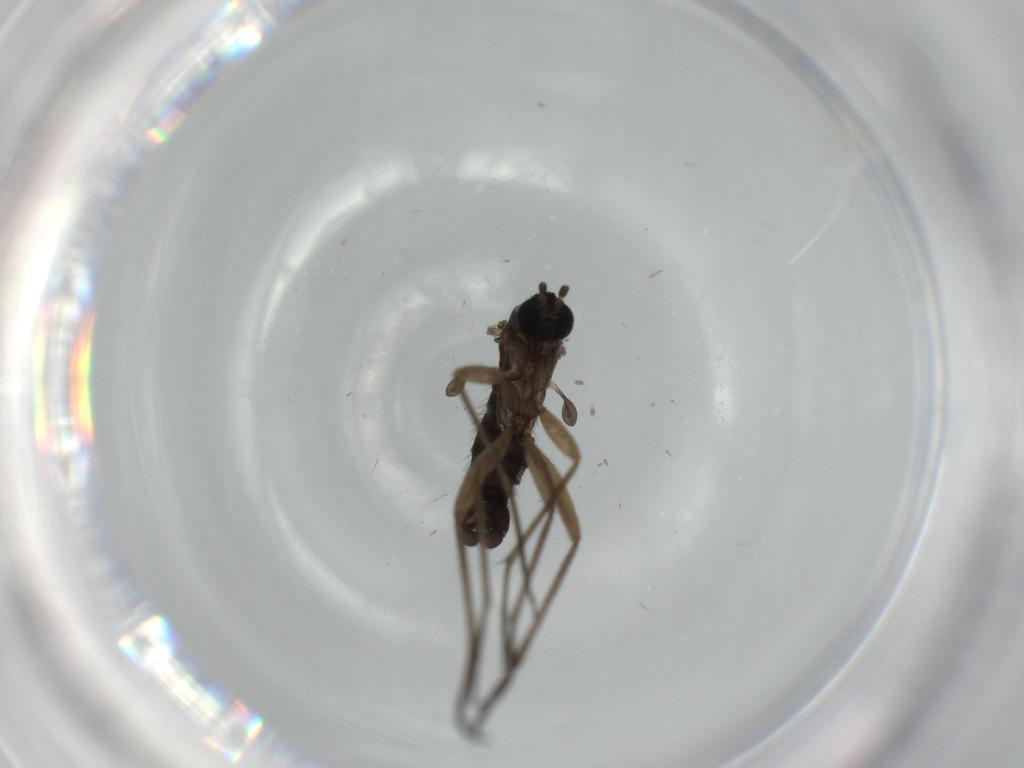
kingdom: Animalia
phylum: Arthropoda
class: Insecta
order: Diptera
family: Sciaridae
